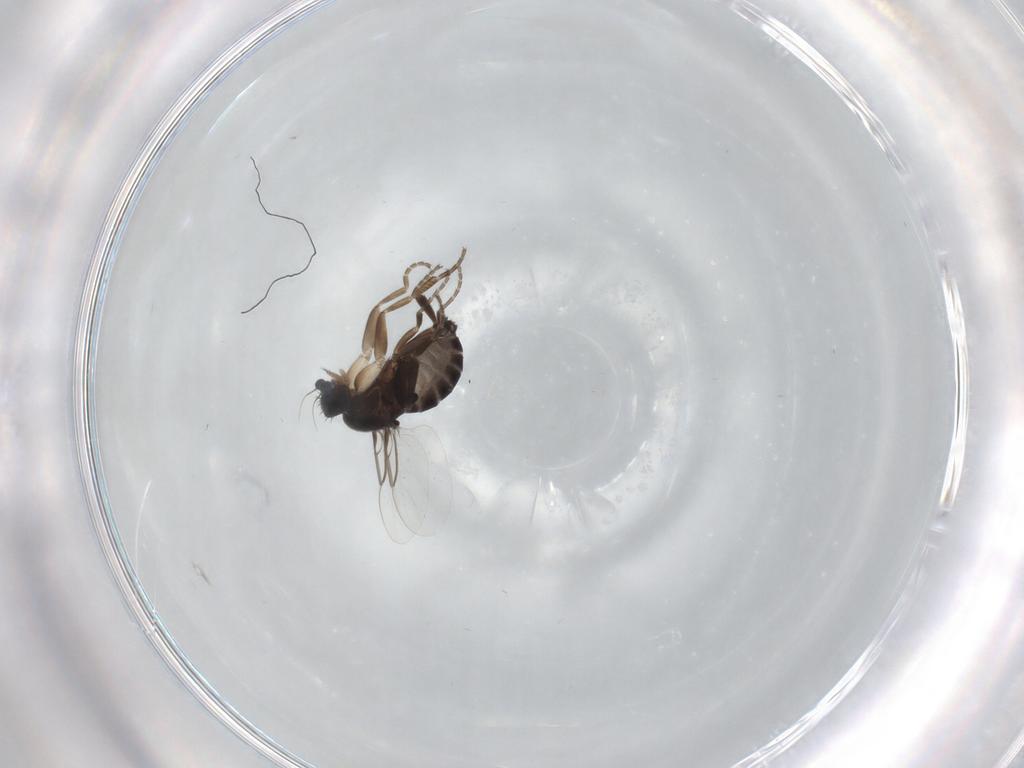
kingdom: Animalia
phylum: Arthropoda
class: Insecta
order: Diptera
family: Phoridae
